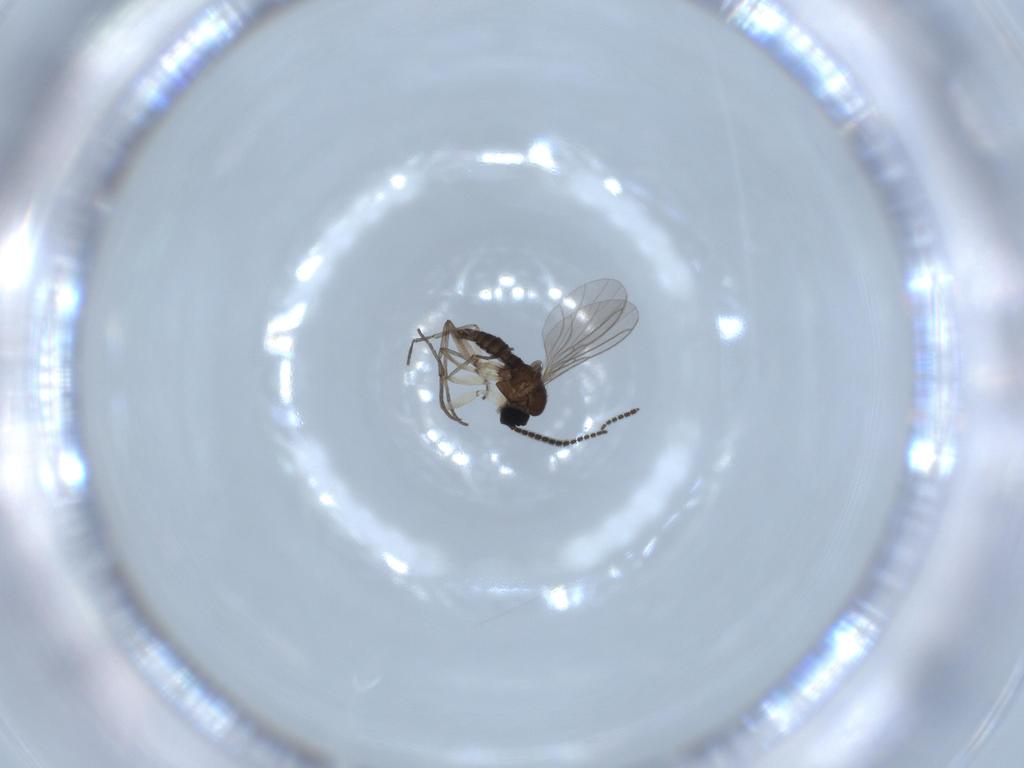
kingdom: Animalia
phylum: Arthropoda
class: Insecta
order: Diptera
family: Sciaridae
